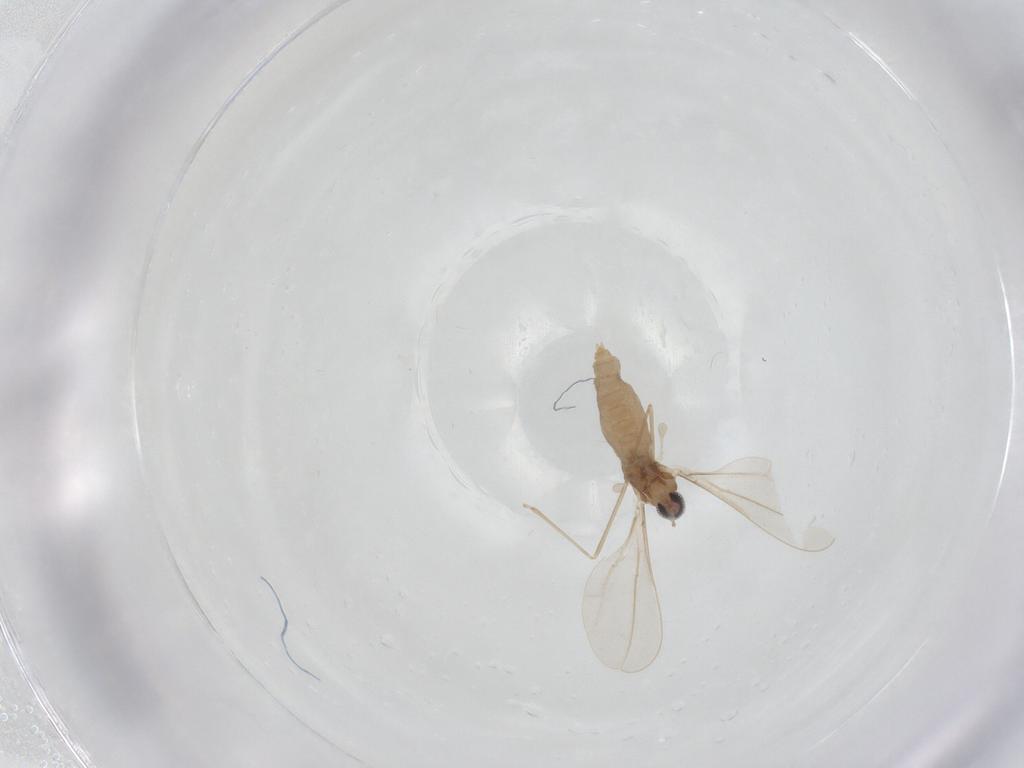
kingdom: Animalia
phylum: Arthropoda
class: Insecta
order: Diptera
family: Cecidomyiidae
